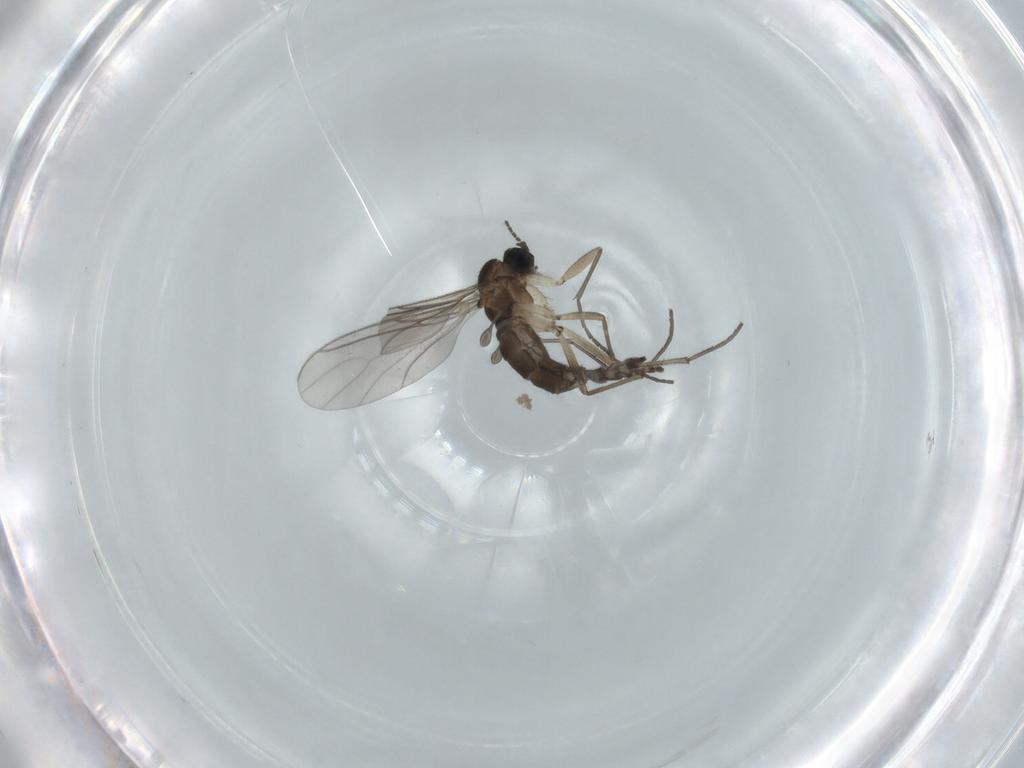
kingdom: Animalia
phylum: Arthropoda
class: Insecta
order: Diptera
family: Sciaridae
